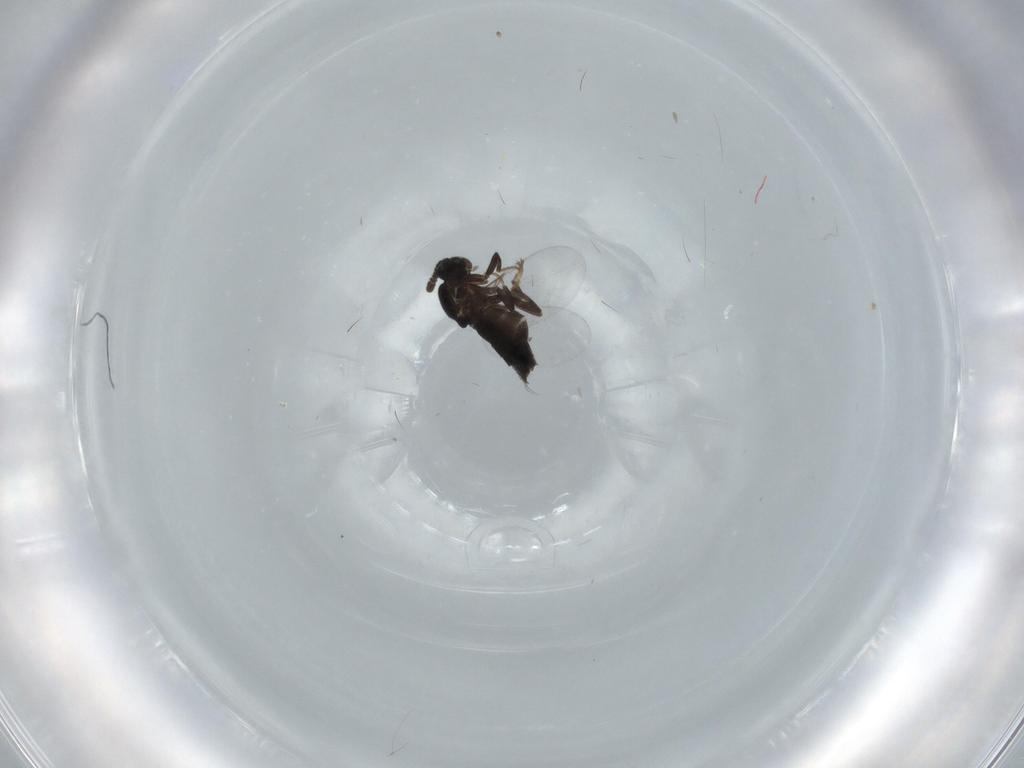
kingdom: Animalia
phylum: Arthropoda
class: Insecta
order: Diptera
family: Scatopsidae
